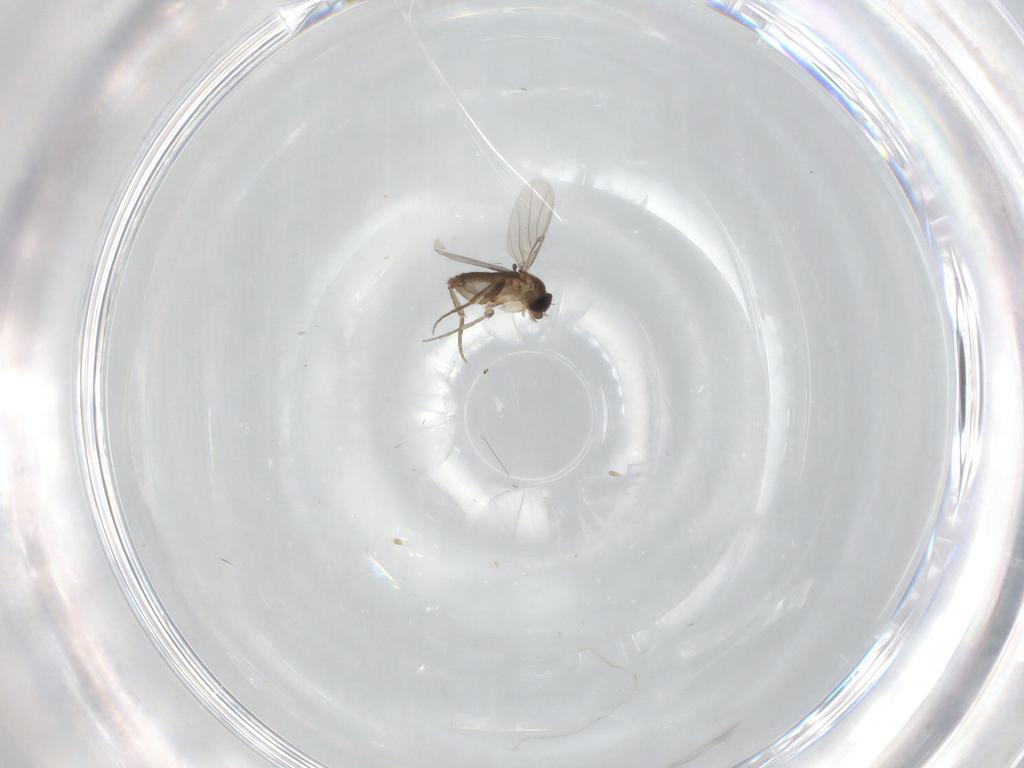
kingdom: Animalia
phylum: Arthropoda
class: Insecta
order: Diptera
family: Phoridae
